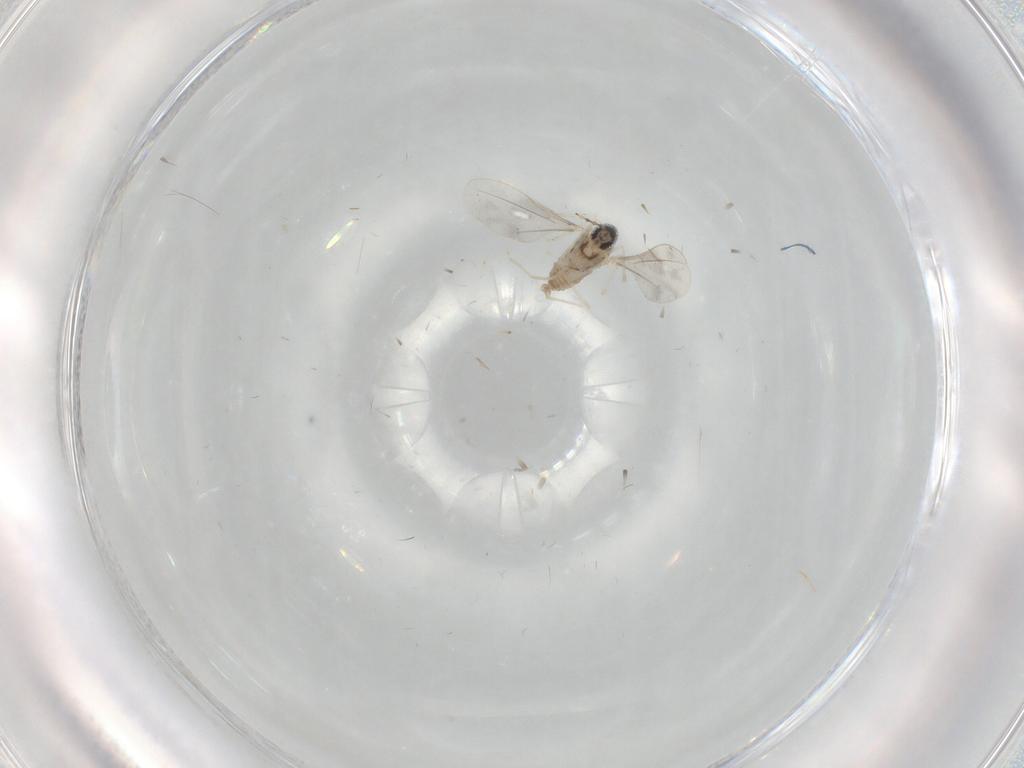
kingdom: Animalia
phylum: Arthropoda
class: Insecta
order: Diptera
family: Cecidomyiidae
